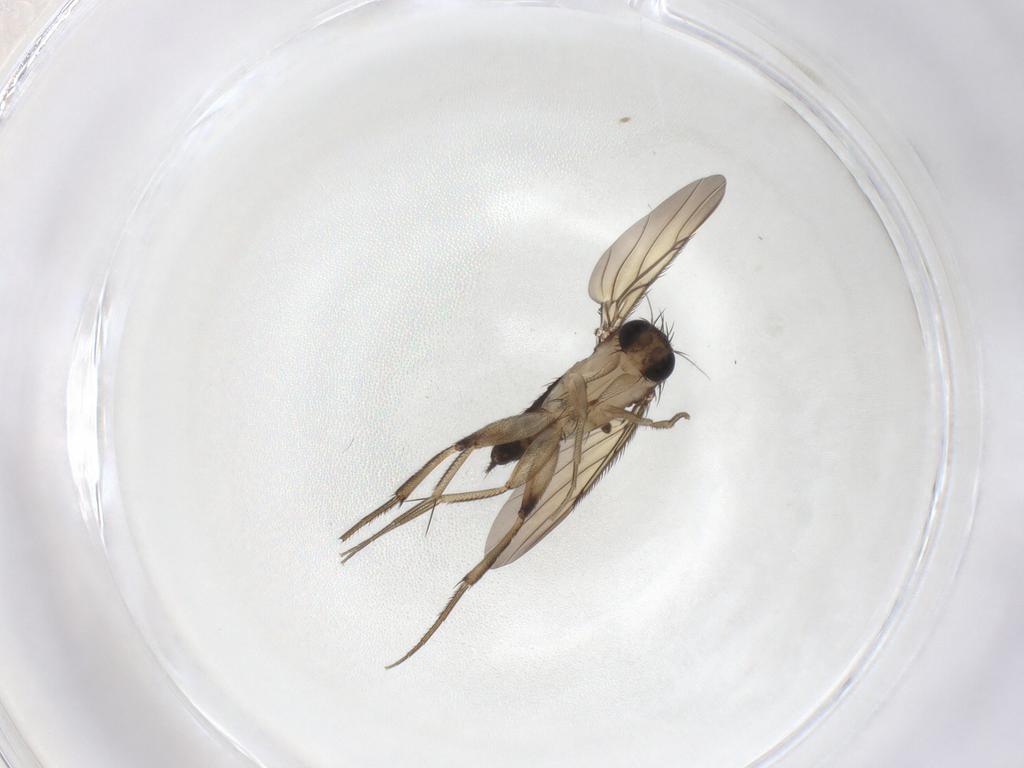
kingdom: Animalia
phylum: Arthropoda
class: Insecta
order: Diptera
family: Phoridae
